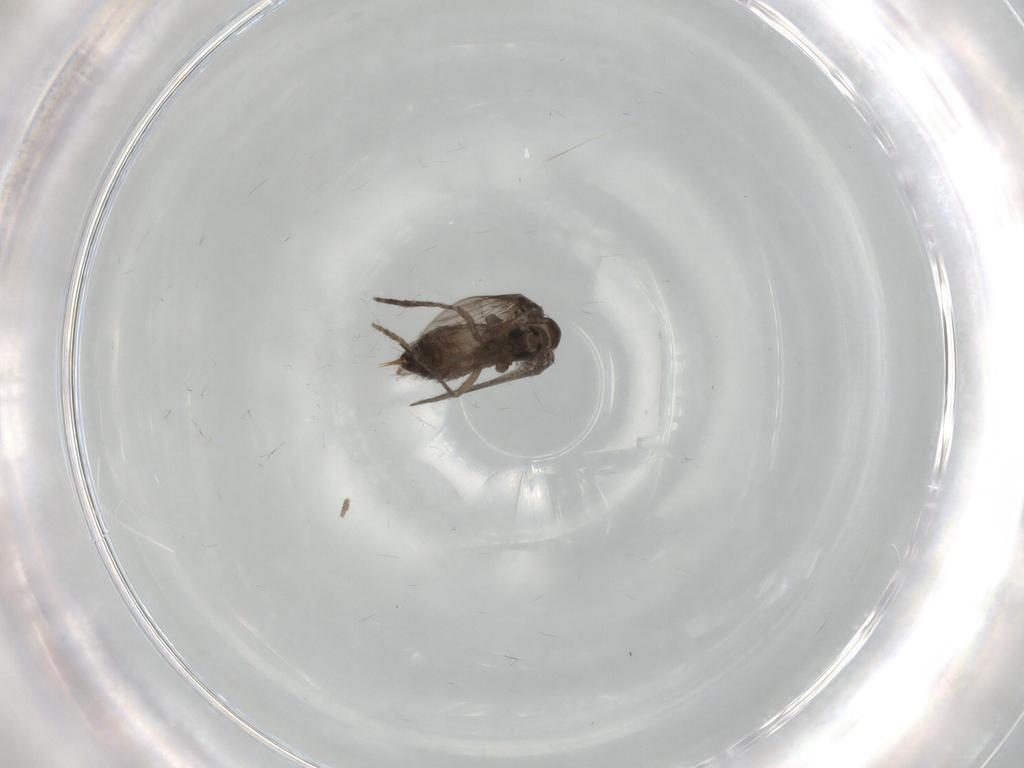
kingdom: Animalia
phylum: Arthropoda
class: Insecta
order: Diptera
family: Psychodidae
